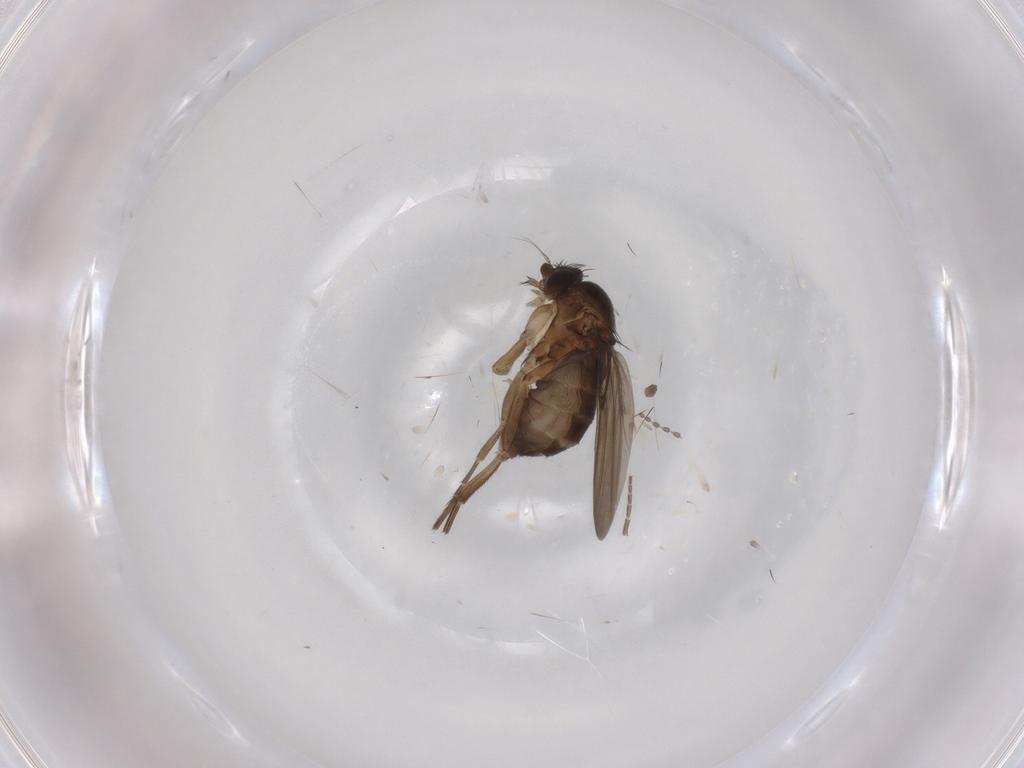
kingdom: Animalia
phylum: Arthropoda
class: Insecta
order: Diptera
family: Phoridae
